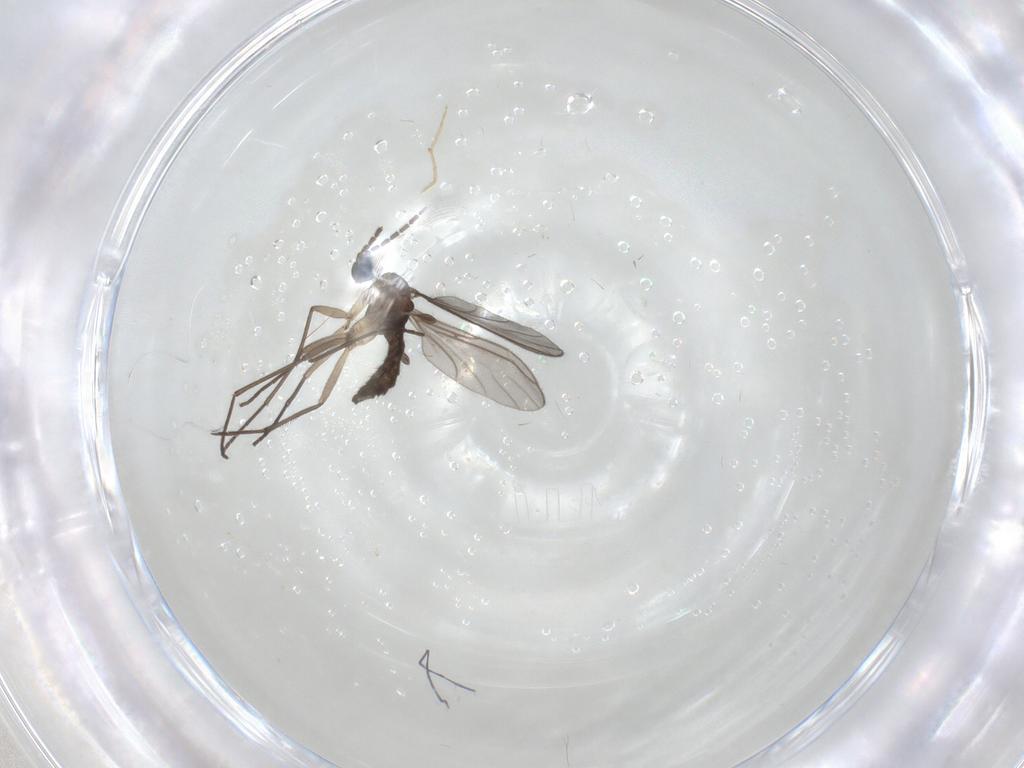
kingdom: Animalia
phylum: Arthropoda
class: Insecta
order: Diptera
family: Sciaridae
